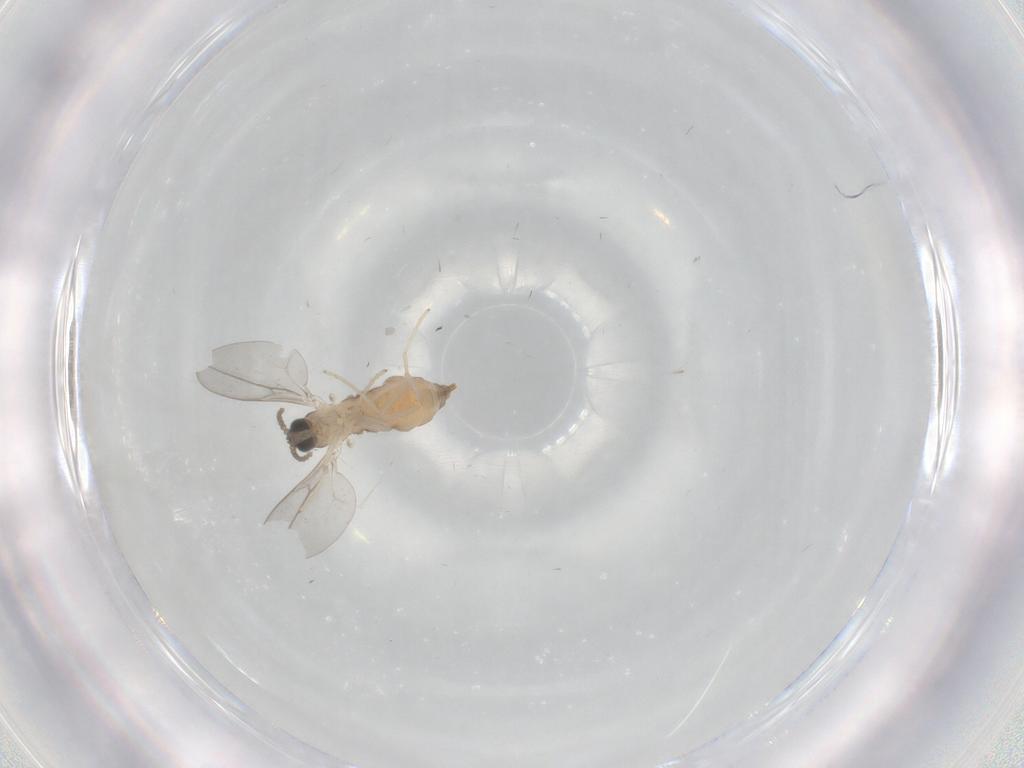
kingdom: Animalia
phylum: Arthropoda
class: Insecta
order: Diptera
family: Cecidomyiidae
